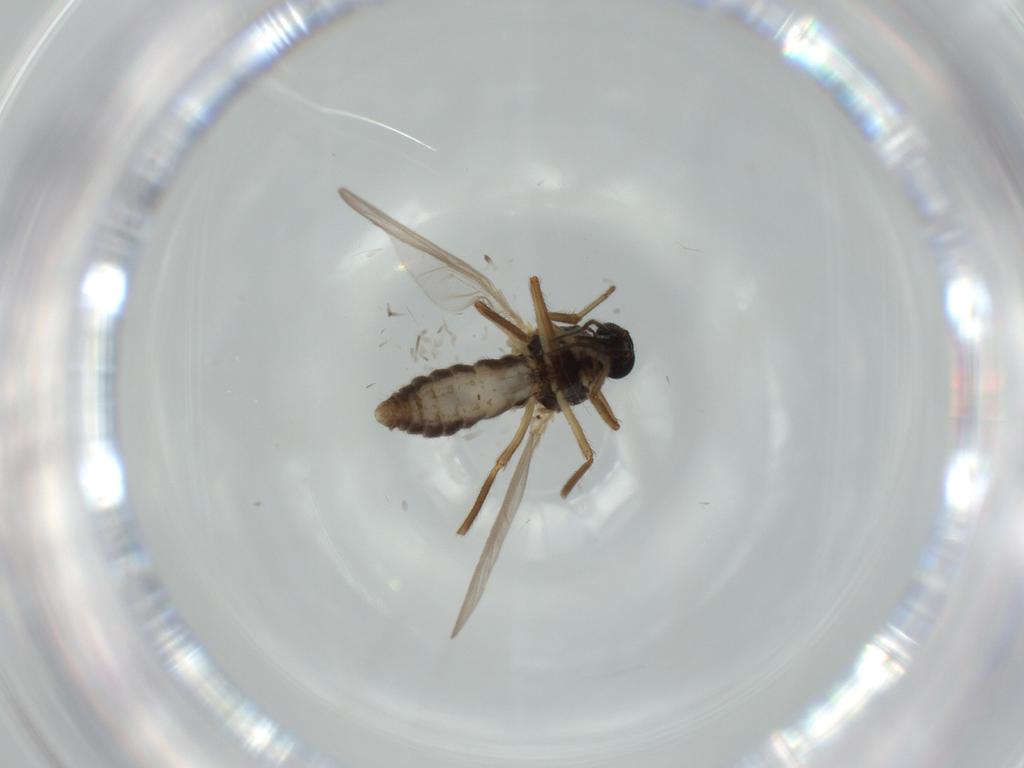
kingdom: Animalia
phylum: Arthropoda
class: Insecta
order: Diptera
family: Ceratopogonidae
